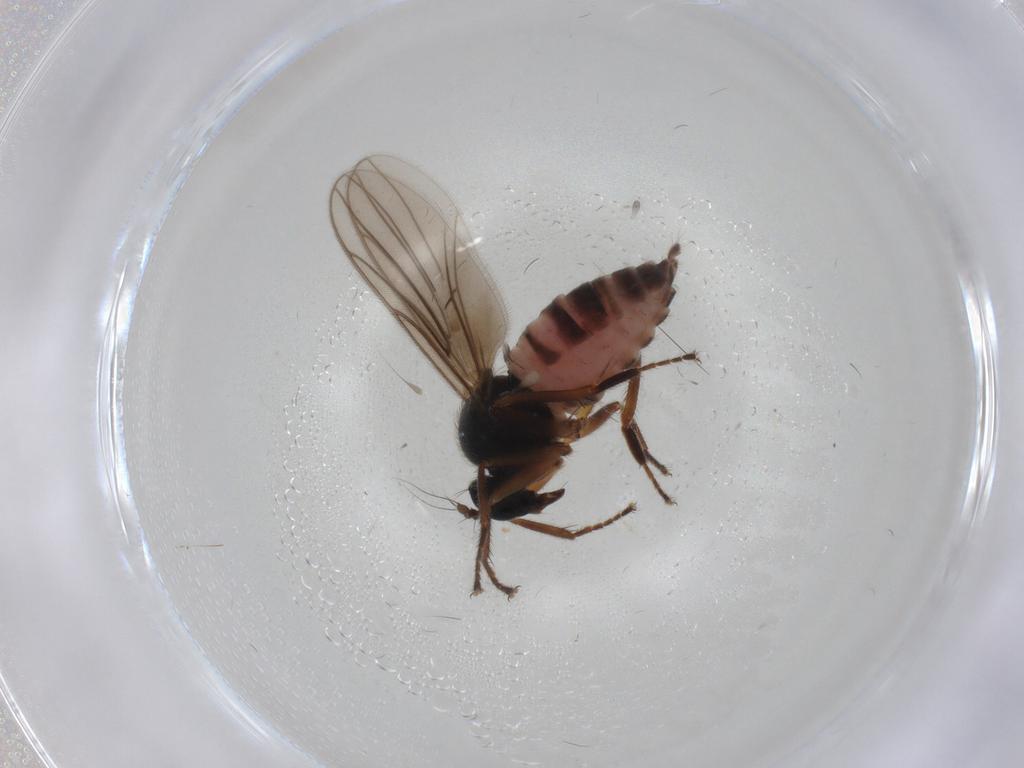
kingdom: Animalia
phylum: Arthropoda
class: Insecta
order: Diptera
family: Hybotidae
